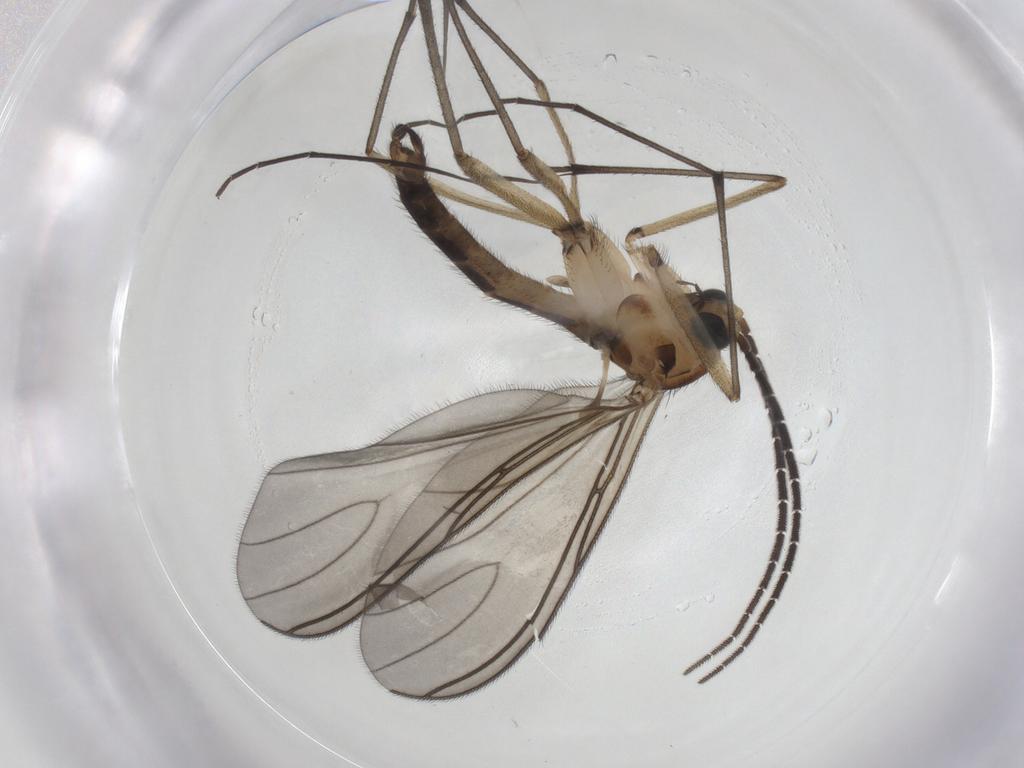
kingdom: Animalia
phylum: Arthropoda
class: Insecta
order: Diptera
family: Sciaridae
